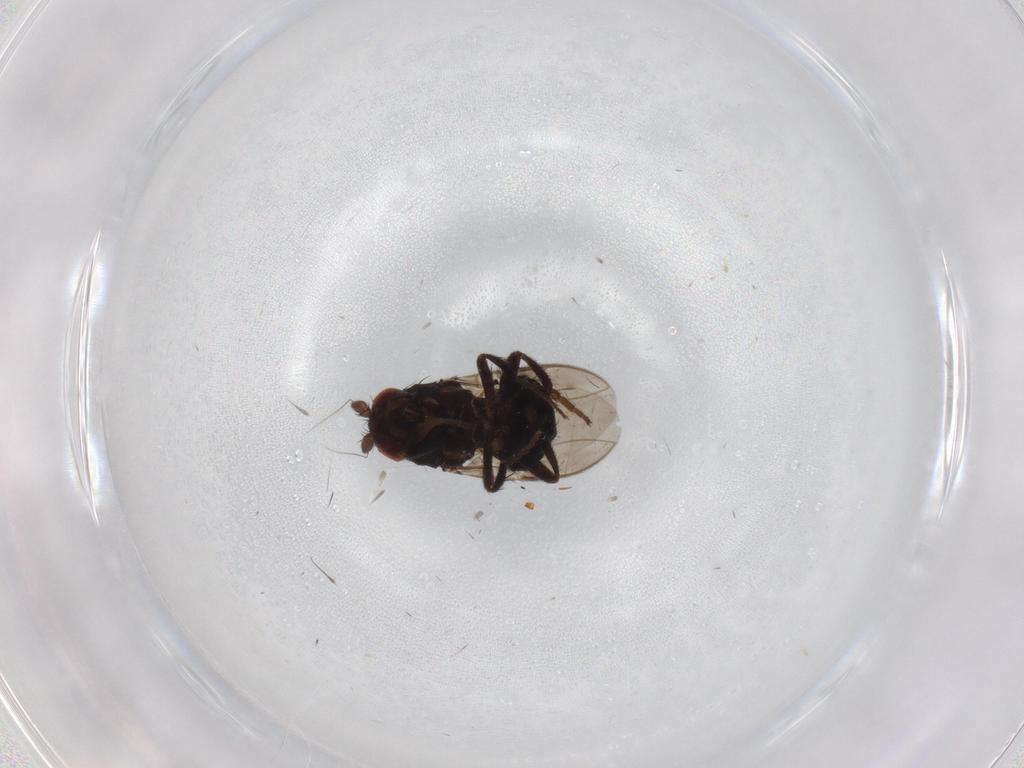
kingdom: Animalia
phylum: Arthropoda
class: Insecta
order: Diptera
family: Sphaeroceridae
